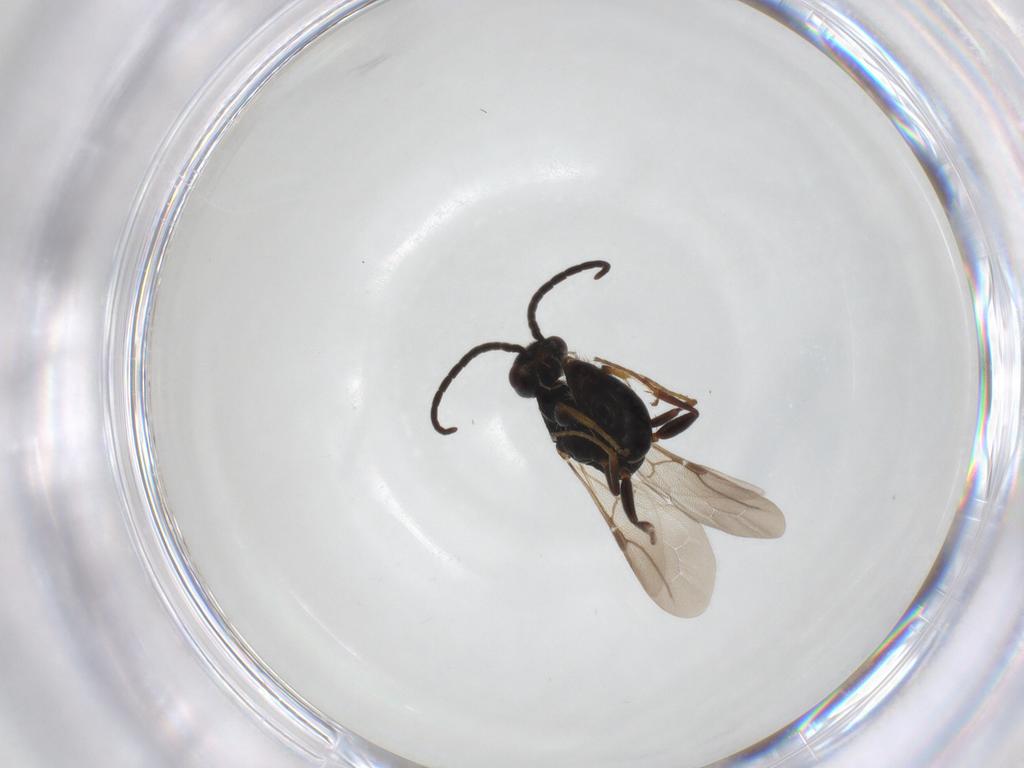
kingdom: Animalia
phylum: Arthropoda
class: Insecta
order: Hymenoptera
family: Bethylidae
